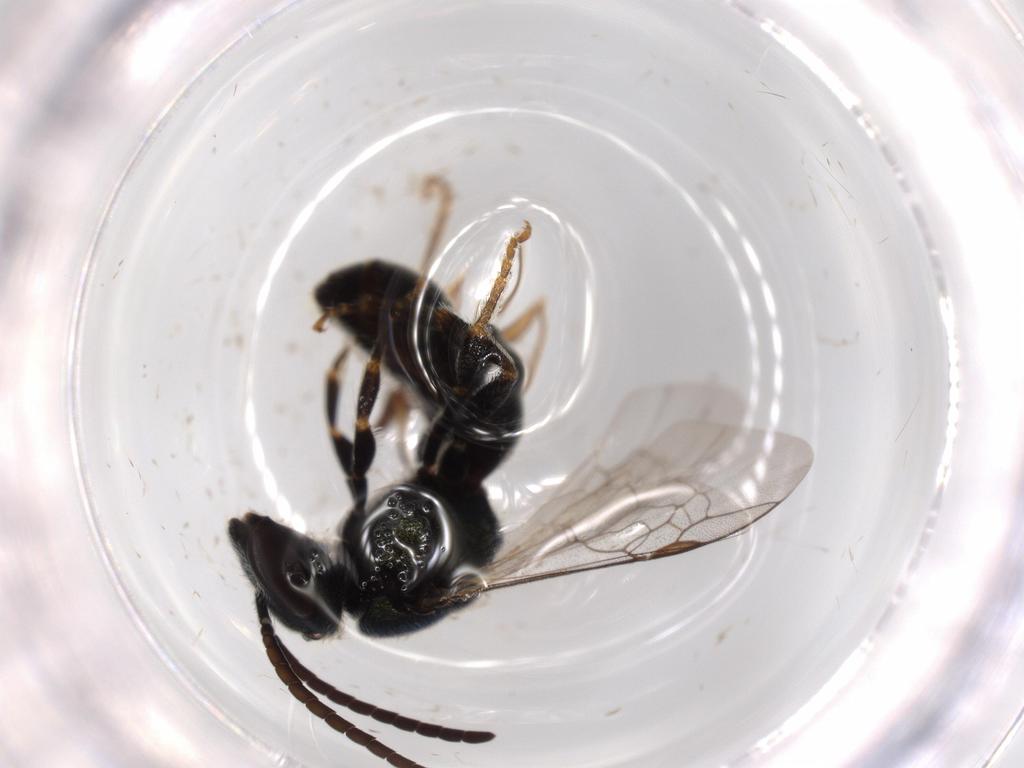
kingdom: Animalia
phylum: Arthropoda
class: Insecta
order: Hymenoptera
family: Halictidae
